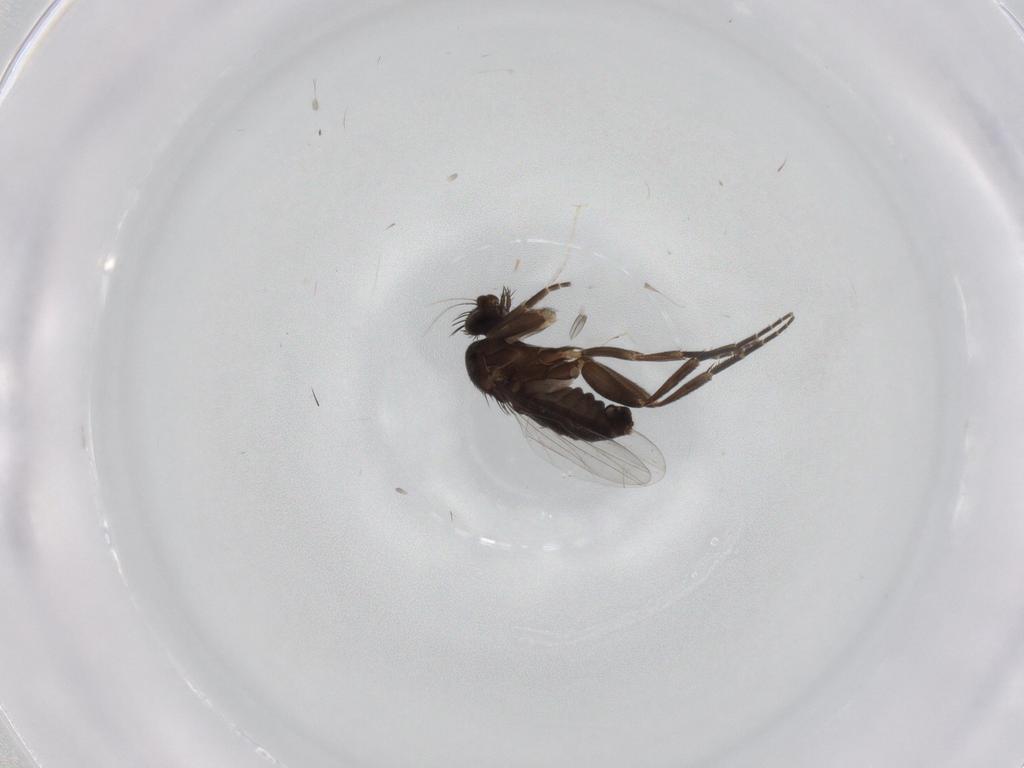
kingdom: Animalia
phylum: Arthropoda
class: Insecta
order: Diptera
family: Phoridae
